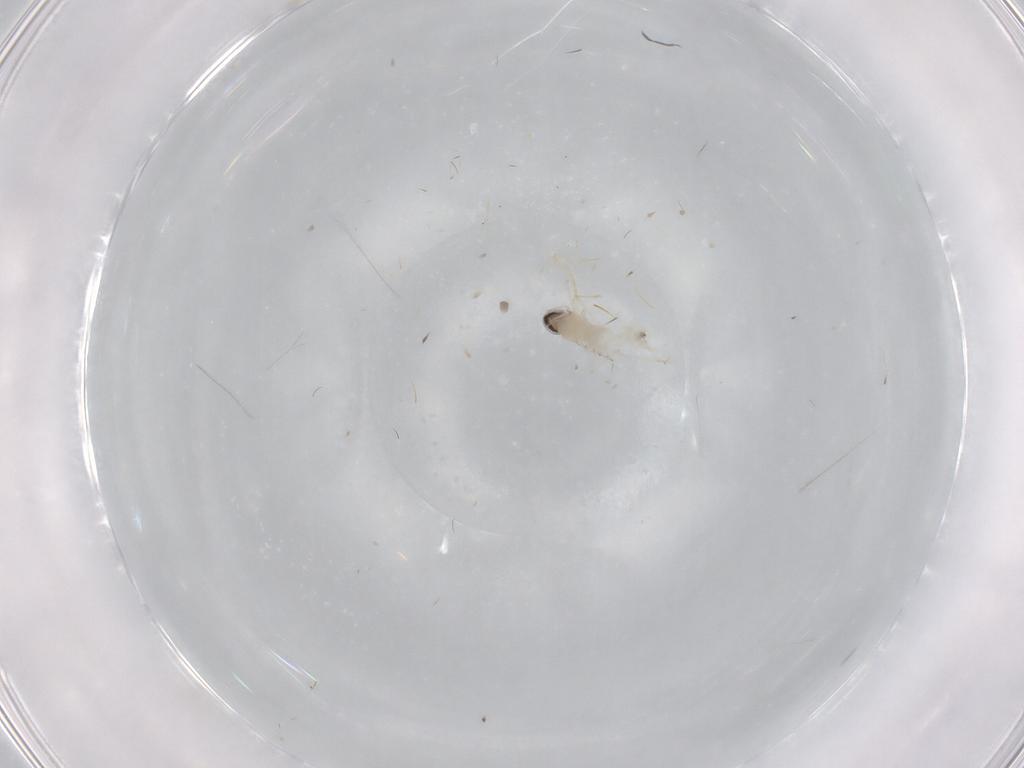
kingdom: Animalia
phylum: Arthropoda
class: Insecta
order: Diptera
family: Cecidomyiidae
